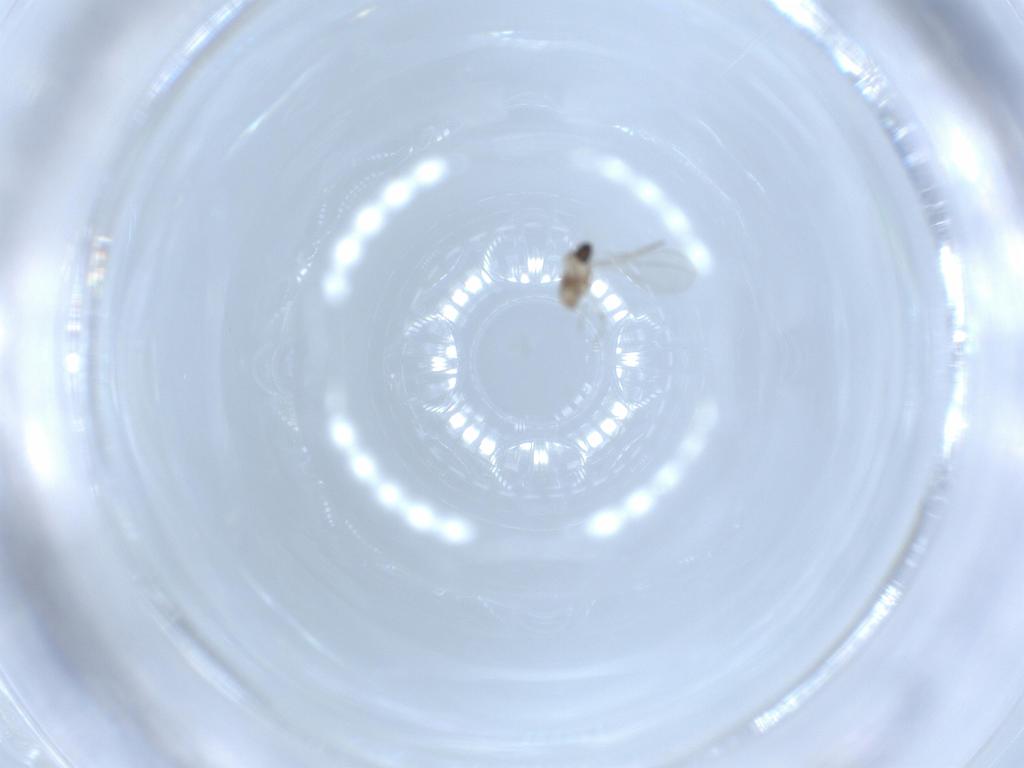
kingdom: Animalia
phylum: Arthropoda
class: Insecta
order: Diptera
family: Cecidomyiidae
